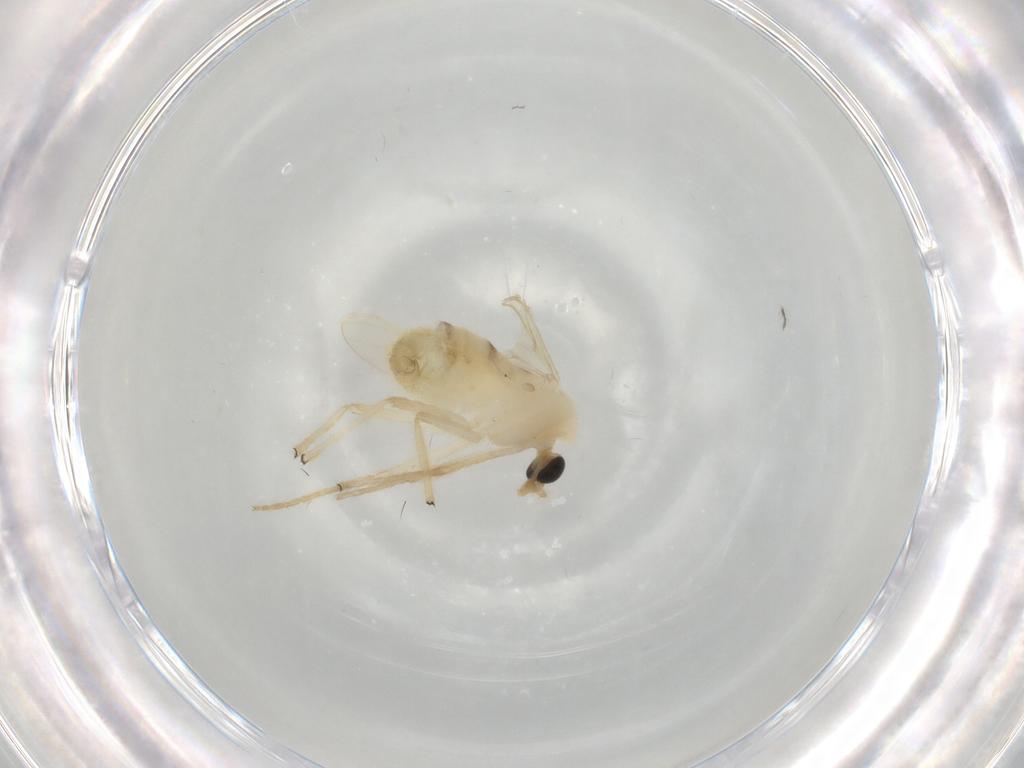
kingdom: Animalia
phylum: Arthropoda
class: Insecta
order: Diptera
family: Chironomidae
